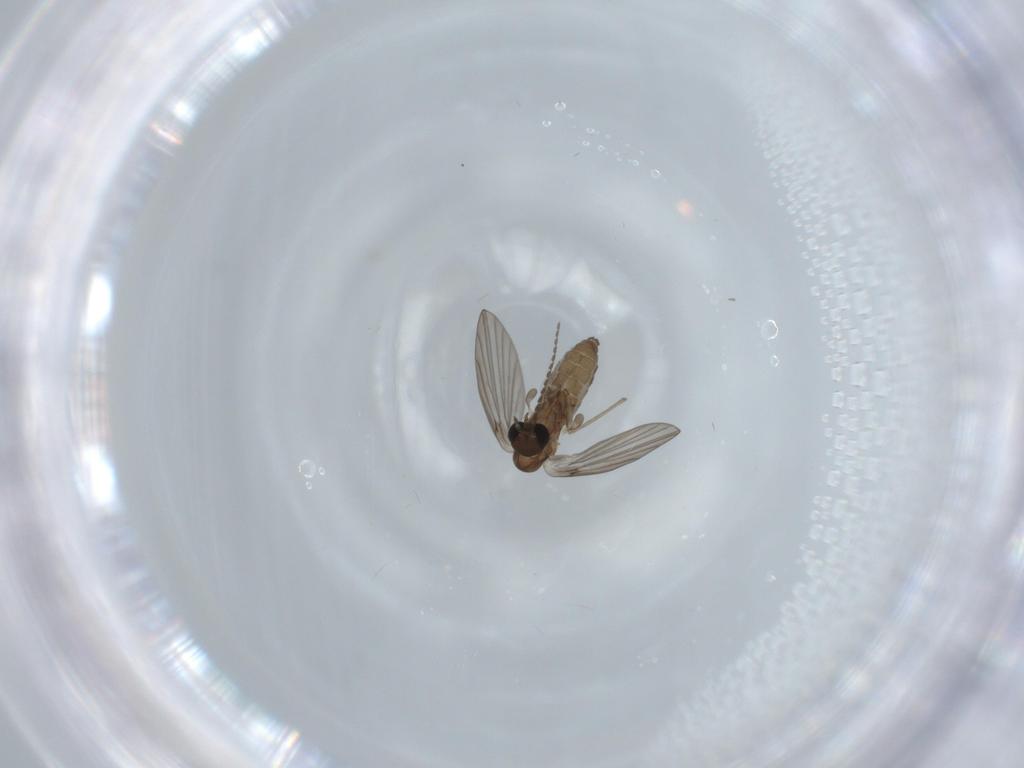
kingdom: Animalia
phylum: Arthropoda
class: Insecta
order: Diptera
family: Psychodidae
